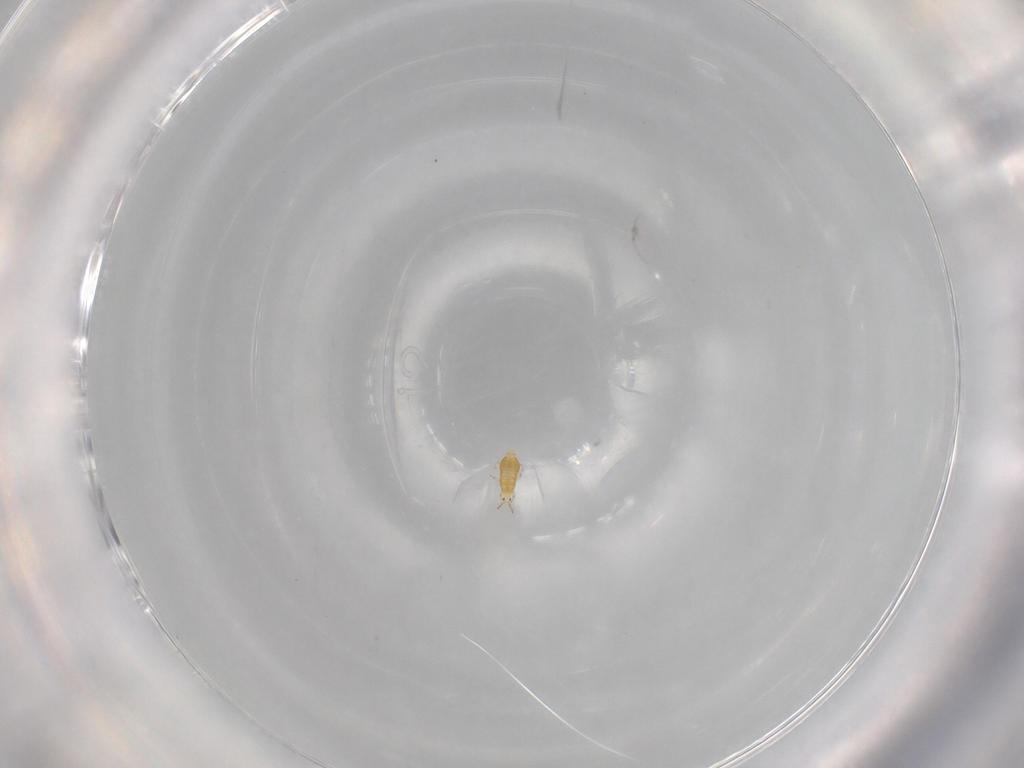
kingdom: Animalia
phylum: Arthropoda
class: Insecta
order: Thysanoptera
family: Thripidae
